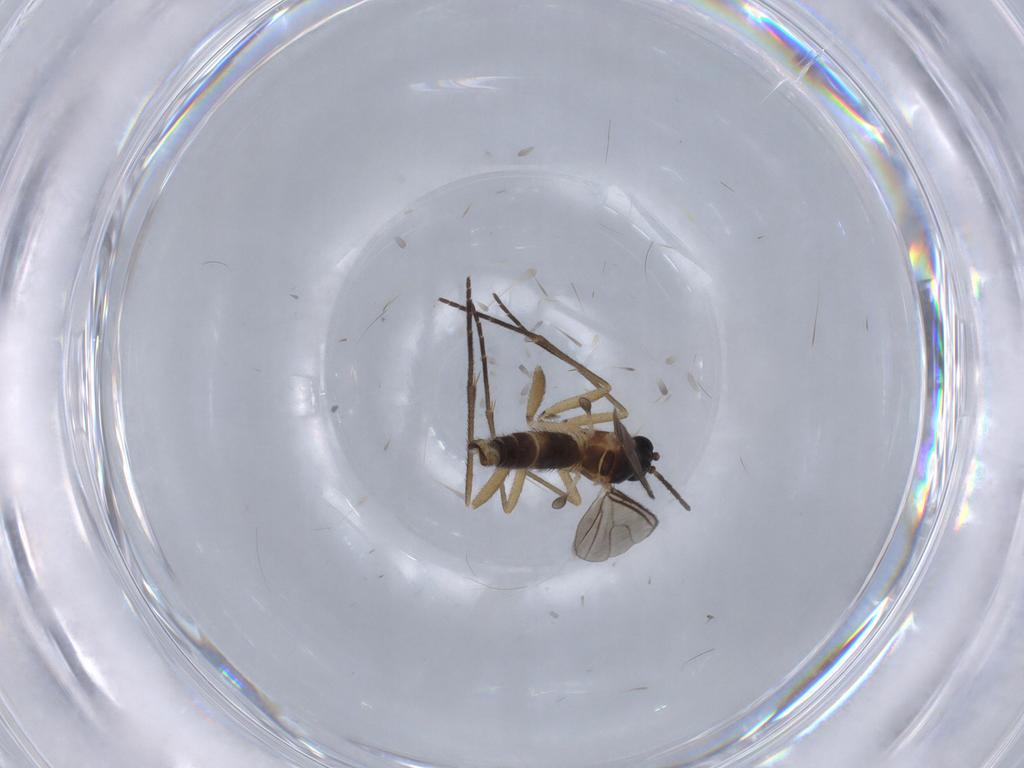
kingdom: Animalia
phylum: Arthropoda
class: Insecta
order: Diptera
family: Sciaridae
